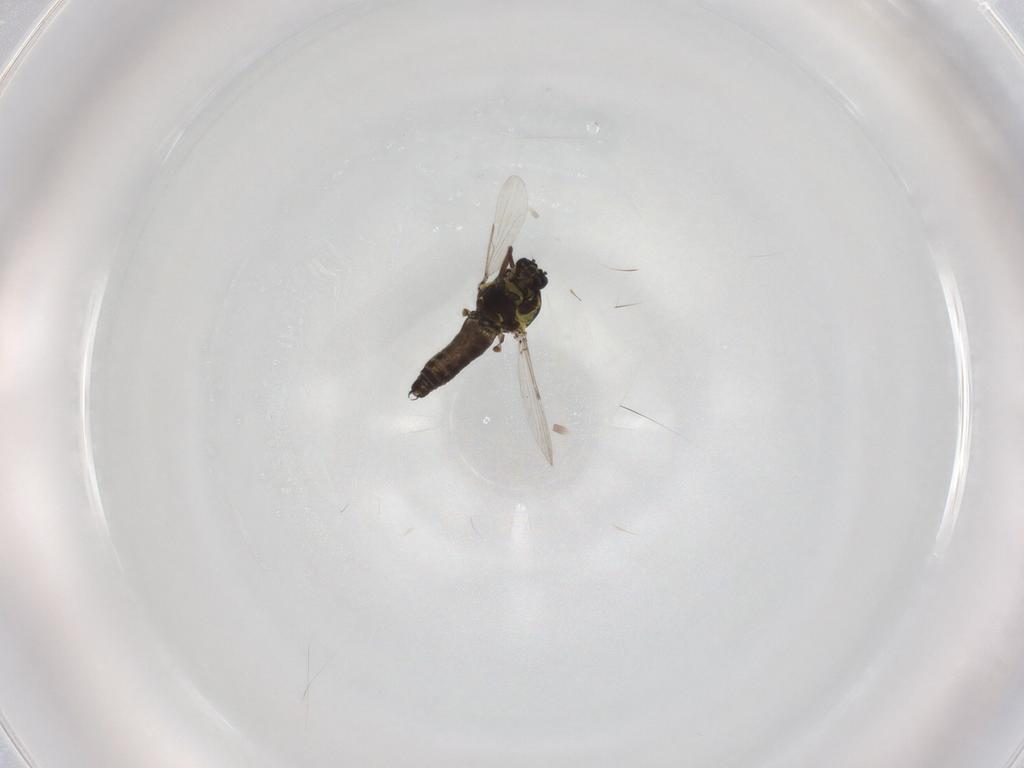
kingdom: Animalia
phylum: Arthropoda
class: Insecta
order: Diptera
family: Ceratopogonidae
